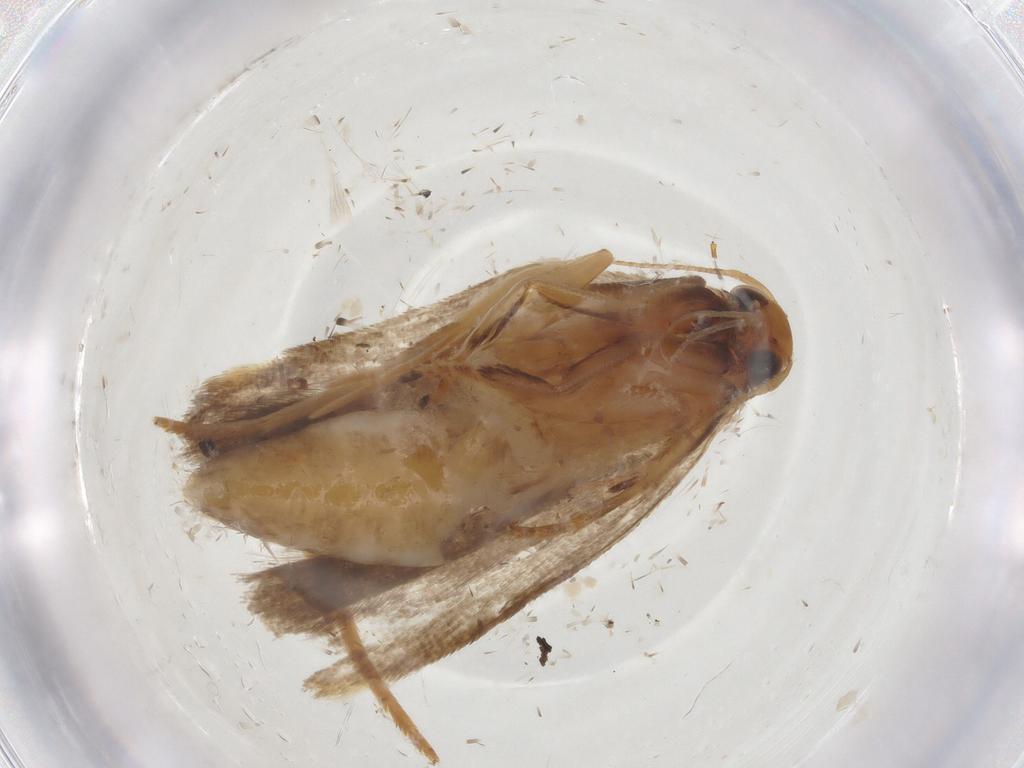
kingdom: Animalia
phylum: Arthropoda
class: Insecta
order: Lepidoptera
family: Gelechiidae
